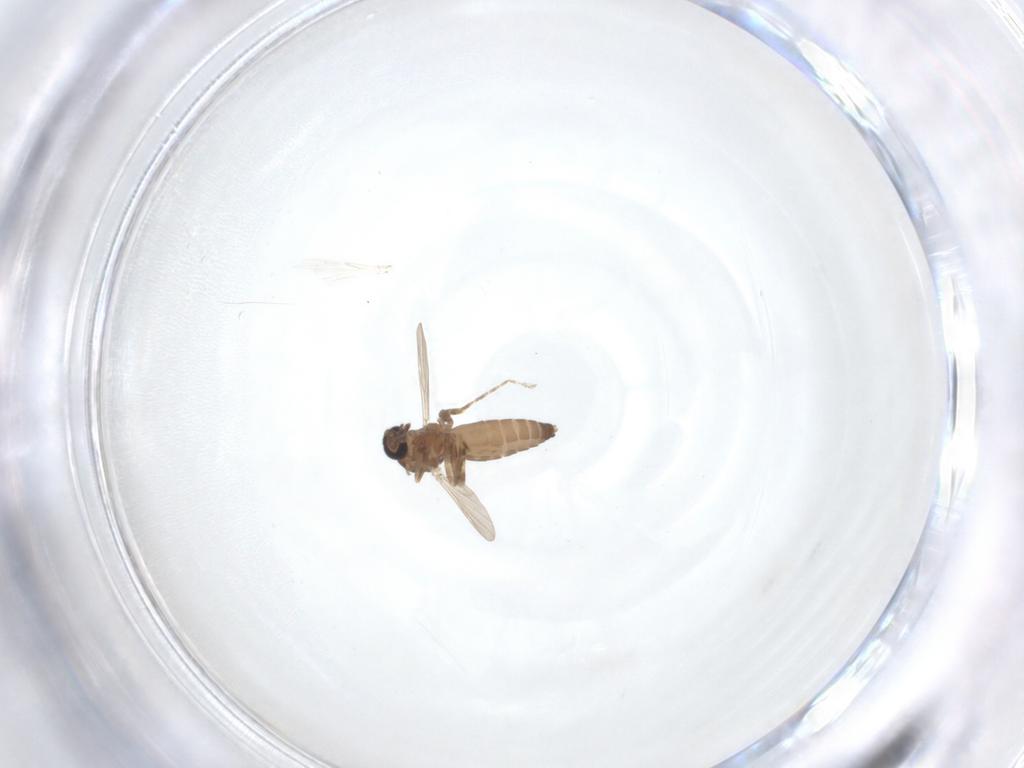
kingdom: Animalia
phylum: Arthropoda
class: Insecta
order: Diptera
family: Ceratopogonidae
